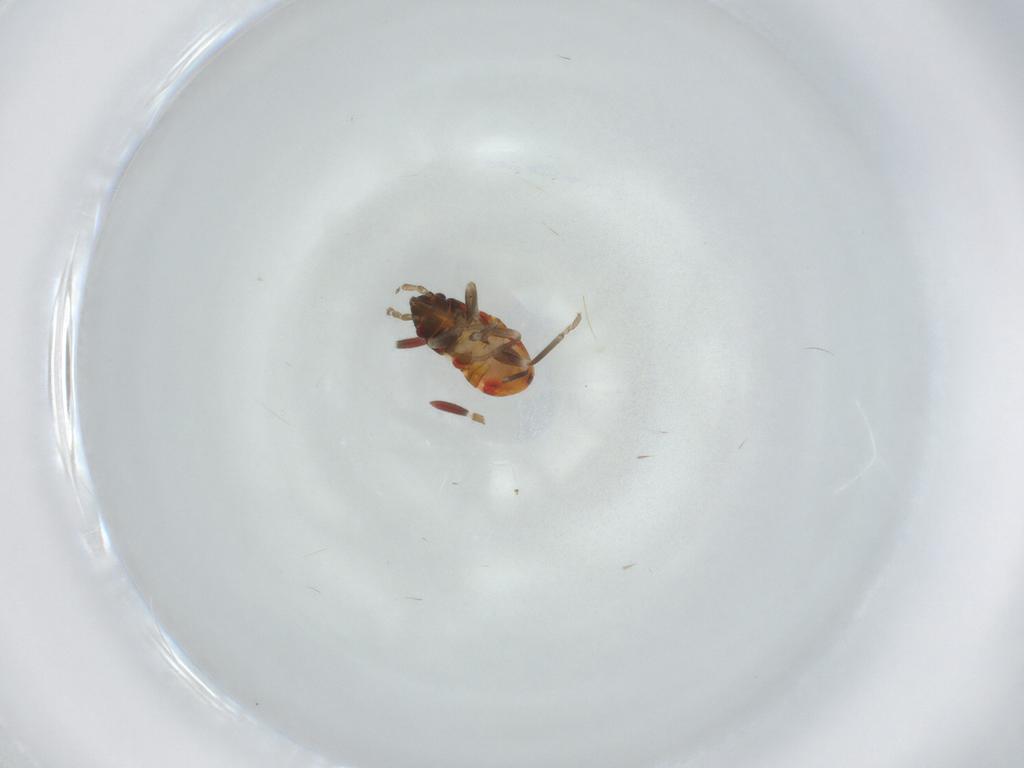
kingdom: Animalia
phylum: Arthropoda
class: Insecta
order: Hemiptera
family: Rhyparochromidae
